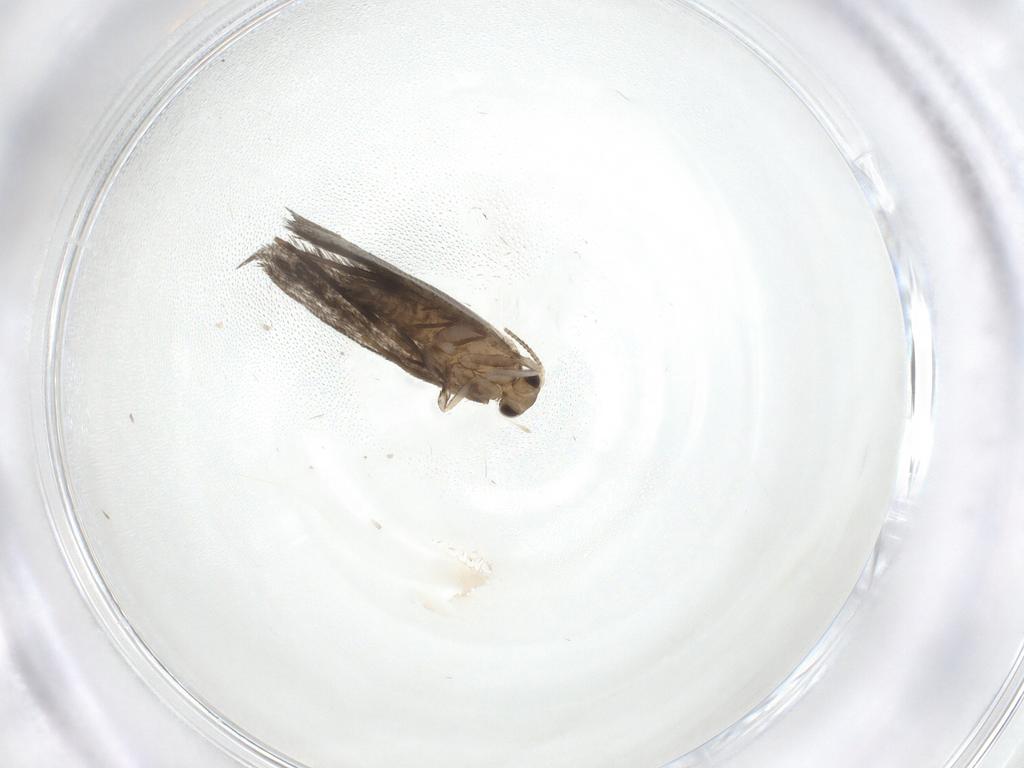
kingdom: Animalia
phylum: Arthropoda
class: Insecta
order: Lepidoptera
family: Crambidae
